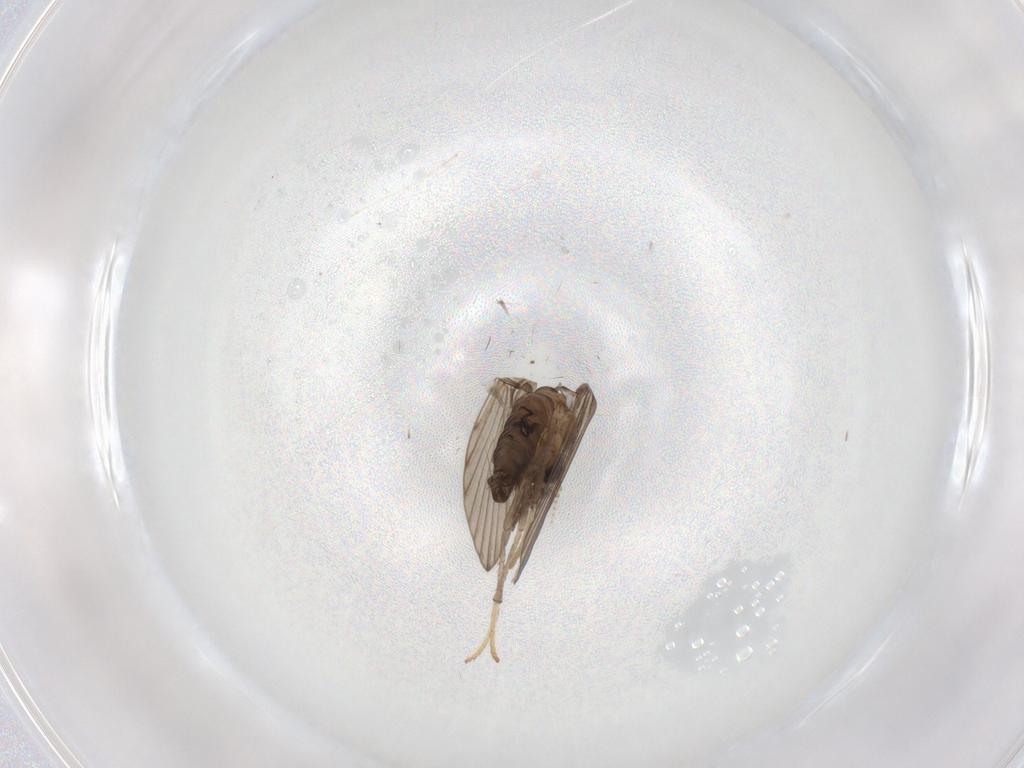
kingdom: Animalia
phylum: Arthropoda
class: Insecta
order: Diptera
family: Psychodidae
